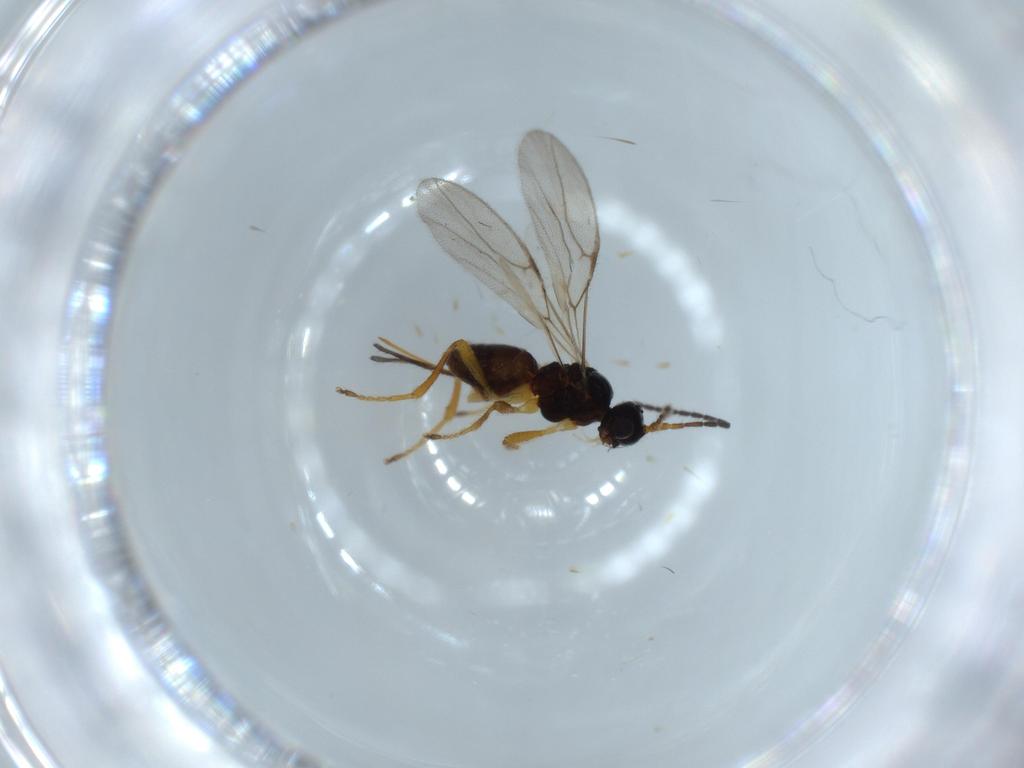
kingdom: Animalia
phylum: Arthropoda
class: Insecta
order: Hymenoptera
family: Braconidae
